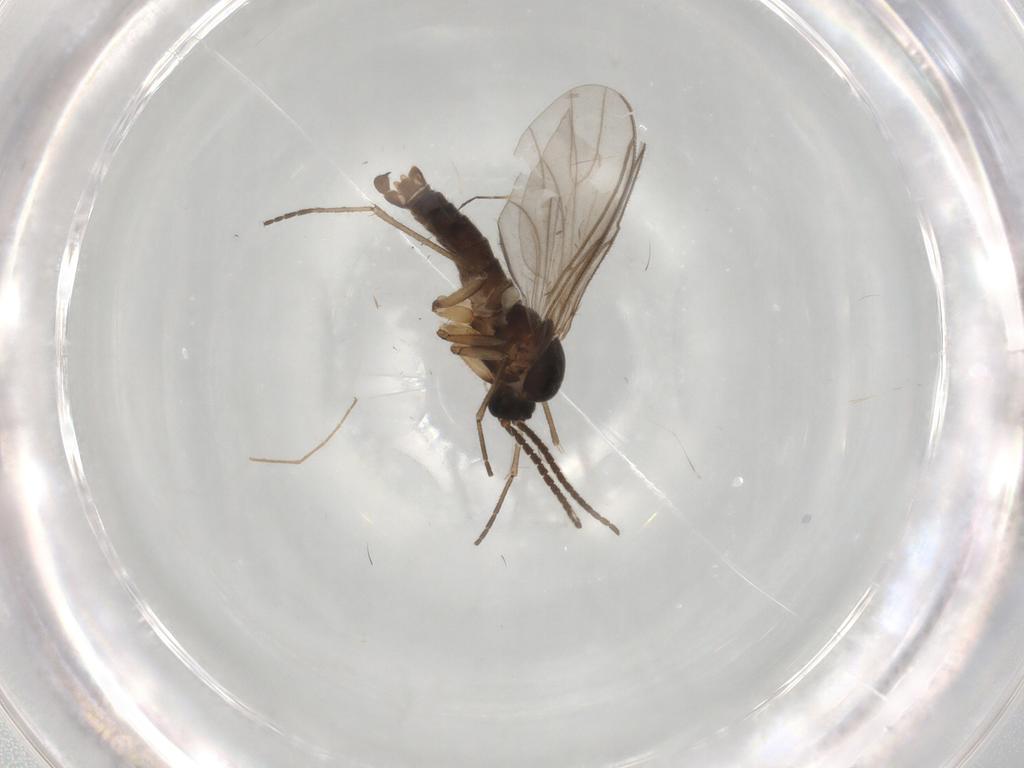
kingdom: Animalia
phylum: Arthropoda
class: Insecta
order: Diptera
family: Sciaridae
